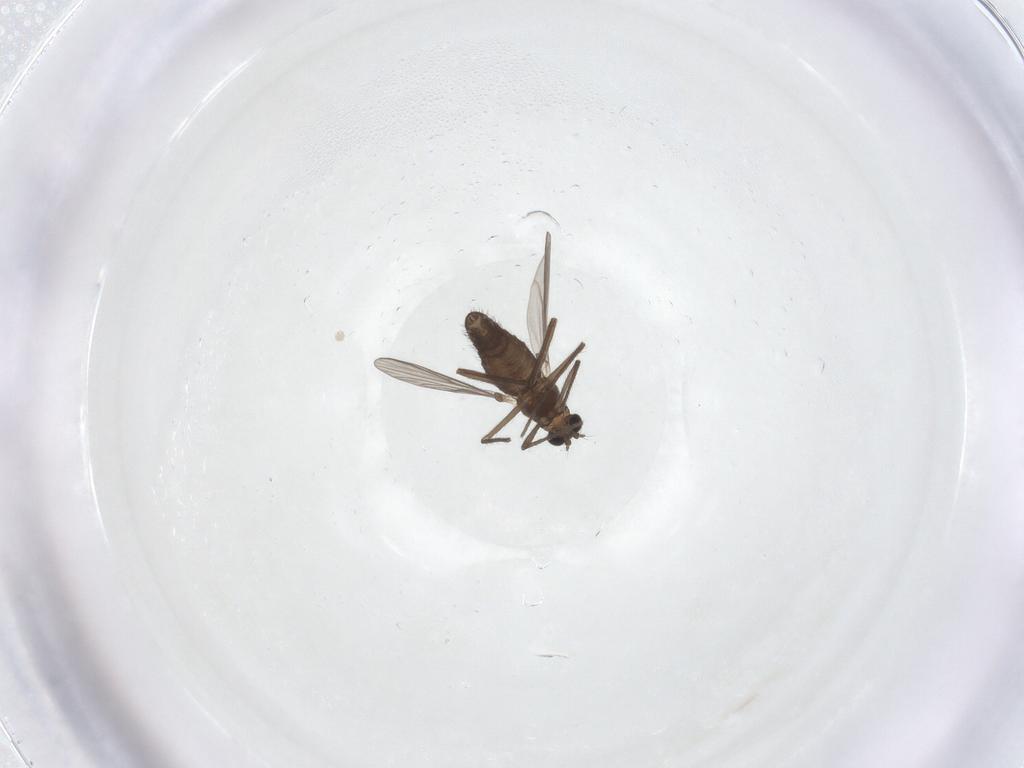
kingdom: Animalia
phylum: Arthropoda
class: Insecta
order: Diptera
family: Chironomidae
